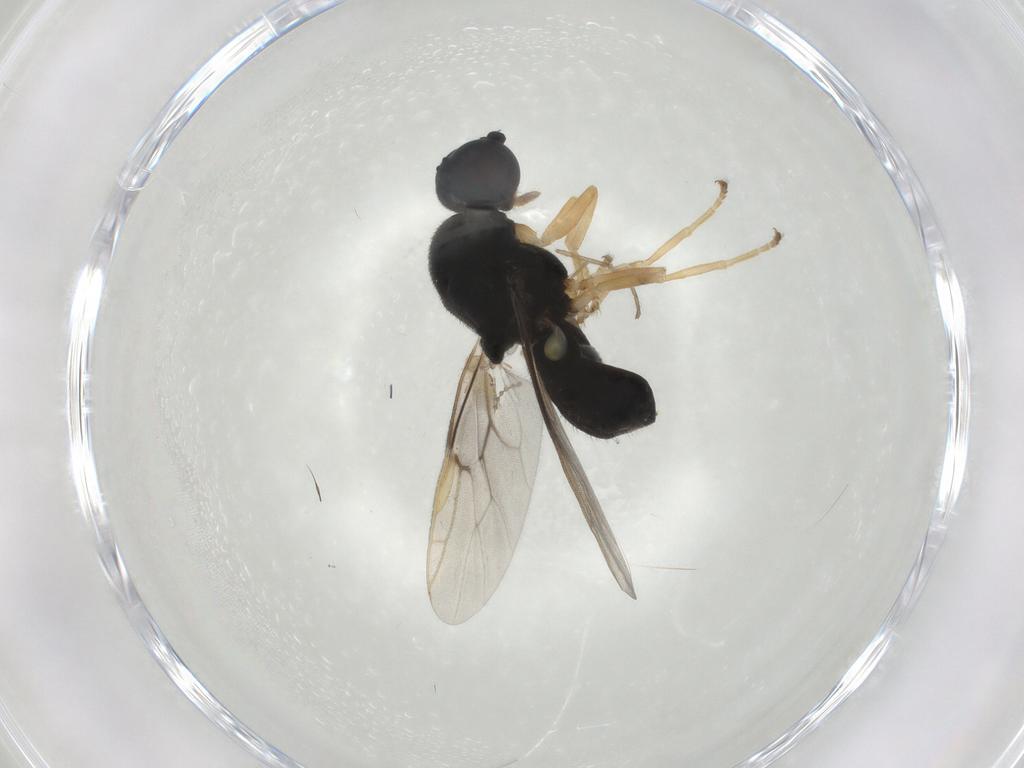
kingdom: Animalia
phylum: Arthropoda
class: Insecta
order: Diptera
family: Stratiomyidae
